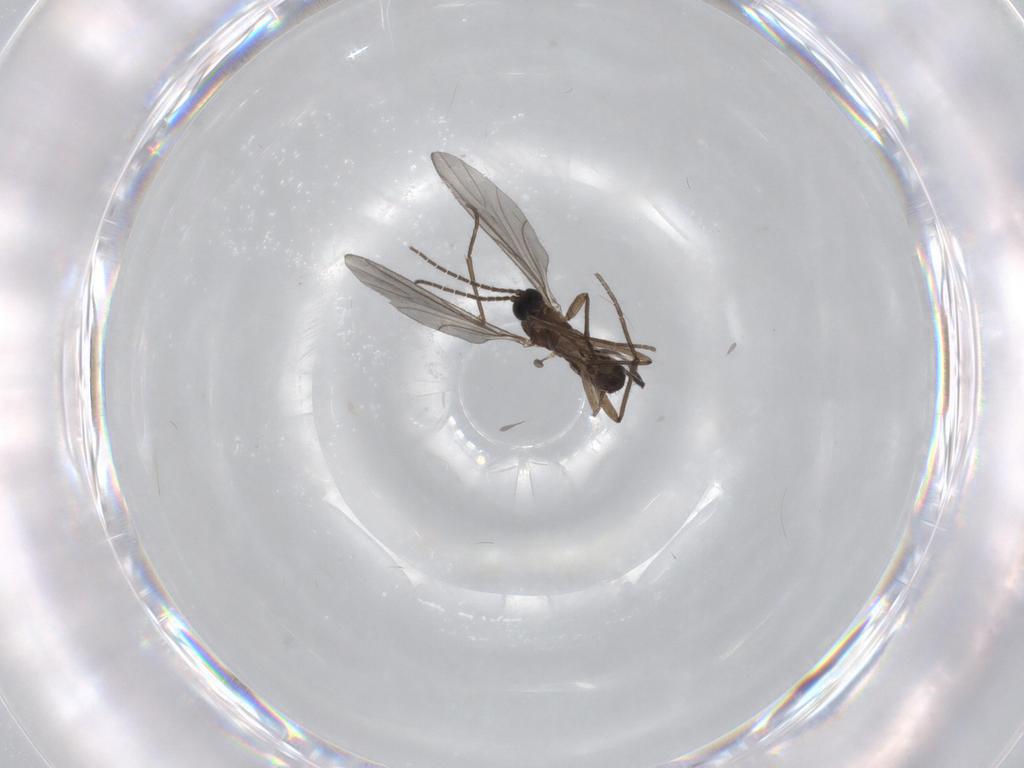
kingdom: Animalia
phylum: Arthropoda
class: Insecta
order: Diptera
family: Sciaridae
